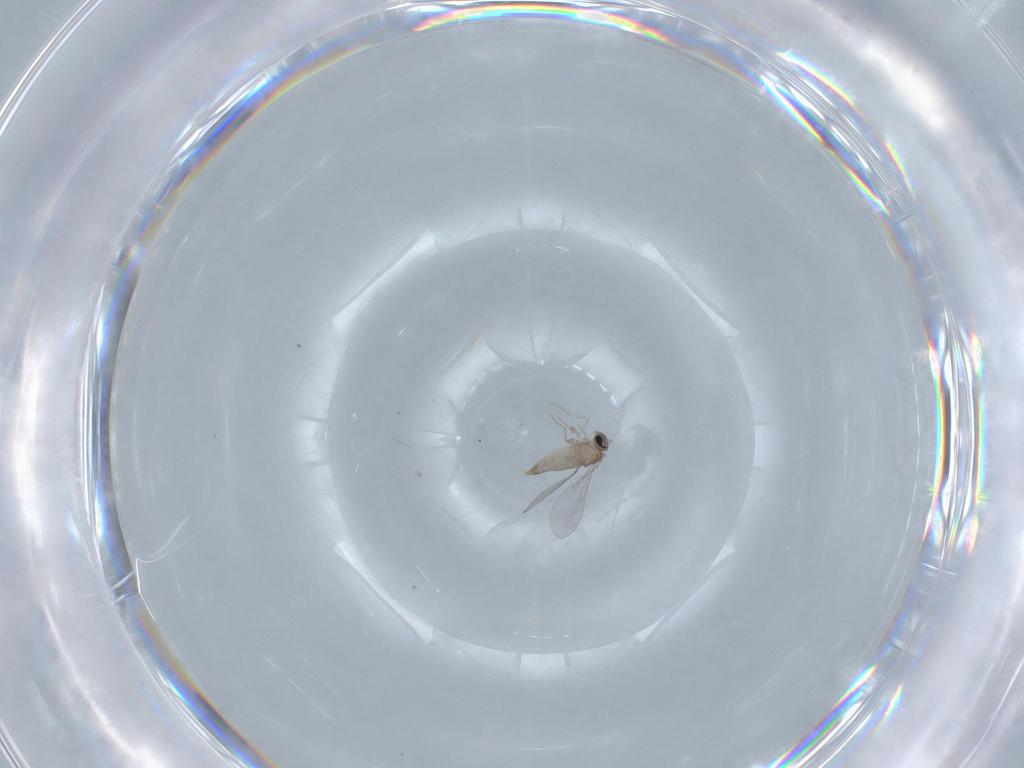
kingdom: Animalia
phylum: Arthropoda
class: Insecta
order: Diptera
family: Cecidomyiidae
